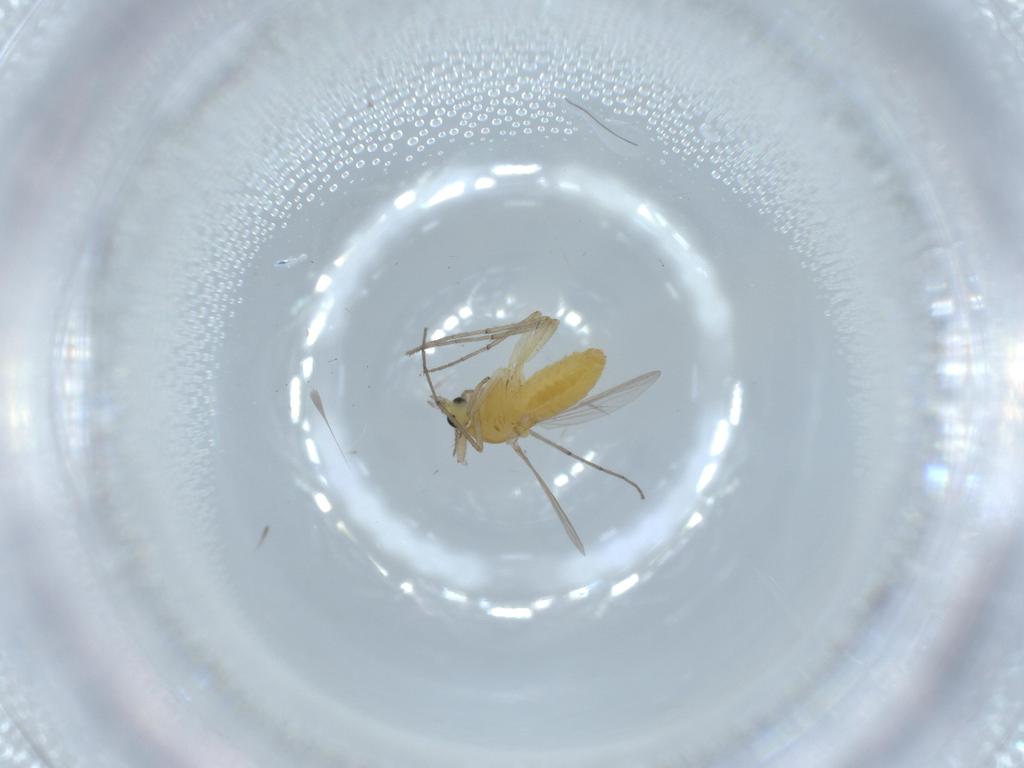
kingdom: Animalia
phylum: Arthropoda
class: Insecta
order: Diptera
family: Chironomidae
